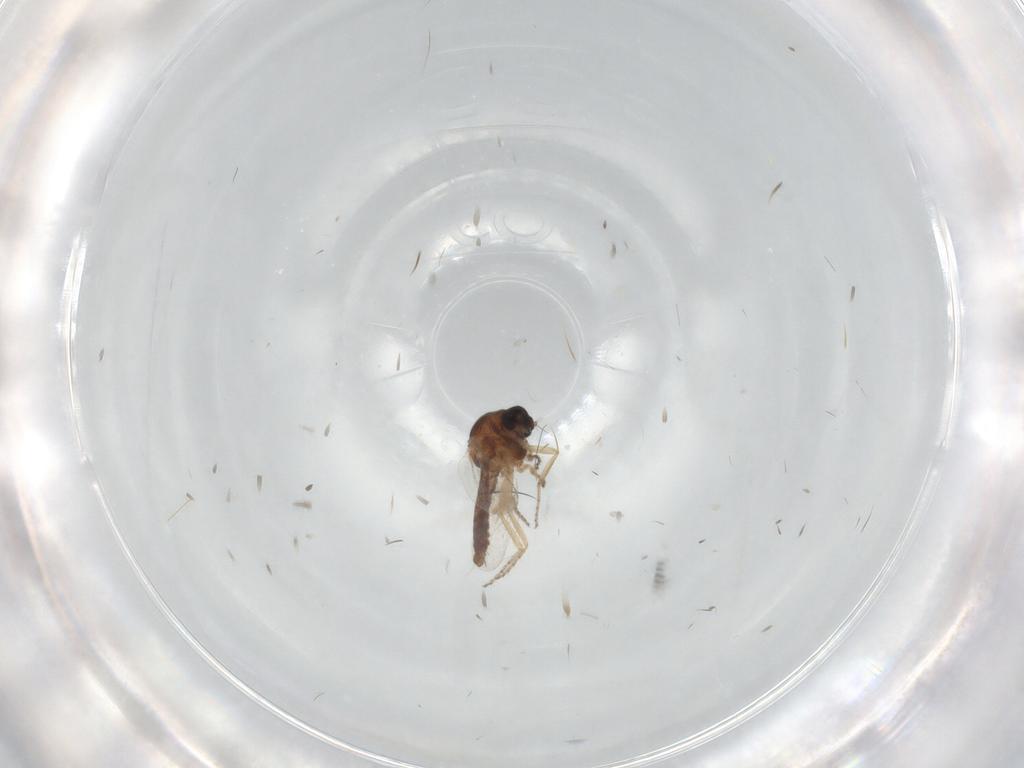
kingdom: Animalia
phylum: Arthropoda
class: Insecta
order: Diptera
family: Ceratopogonidae
